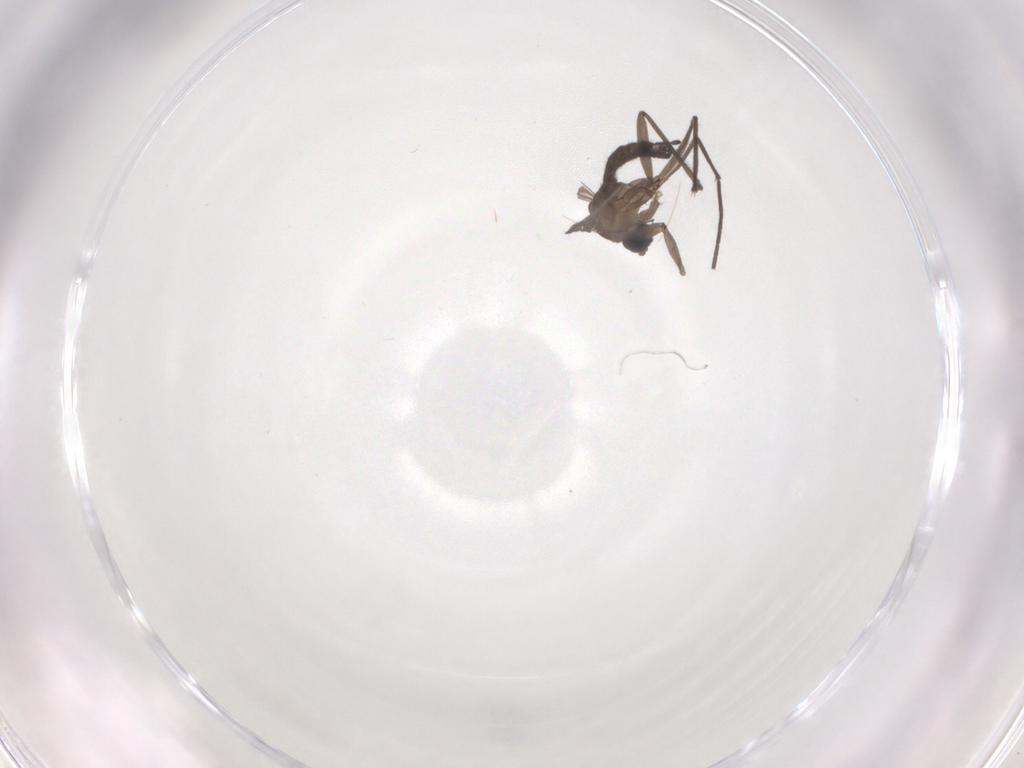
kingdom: Animalia
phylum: Arthropoda
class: Insecta
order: Diptera
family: Sciaridae
